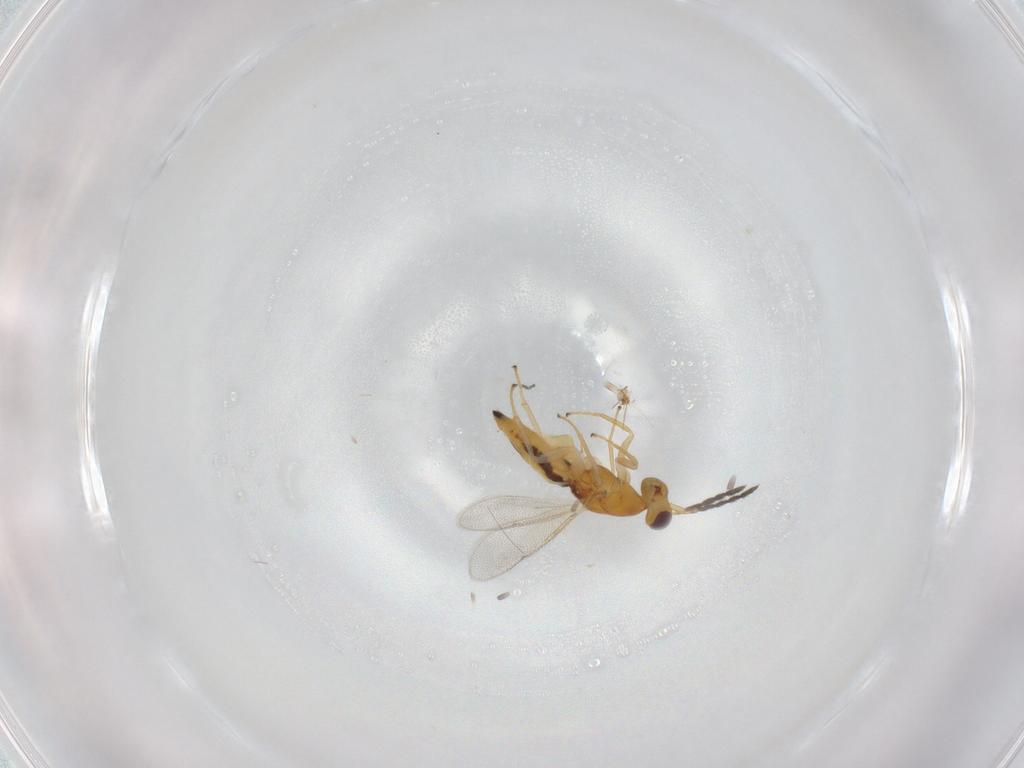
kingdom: Animalia
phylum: Arthropoda
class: Insecta
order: Hymenoptera
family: Eulophidae
